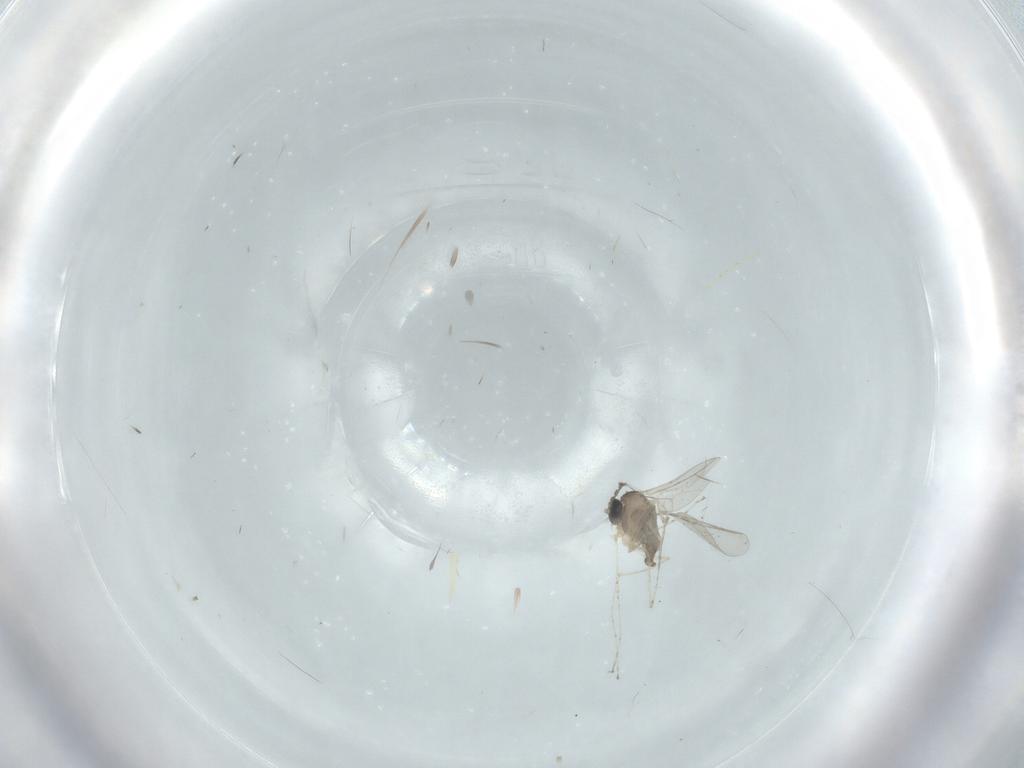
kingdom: Animalia
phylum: Arthropoda
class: Insecta
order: Diptera
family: Cecidomyiidae
